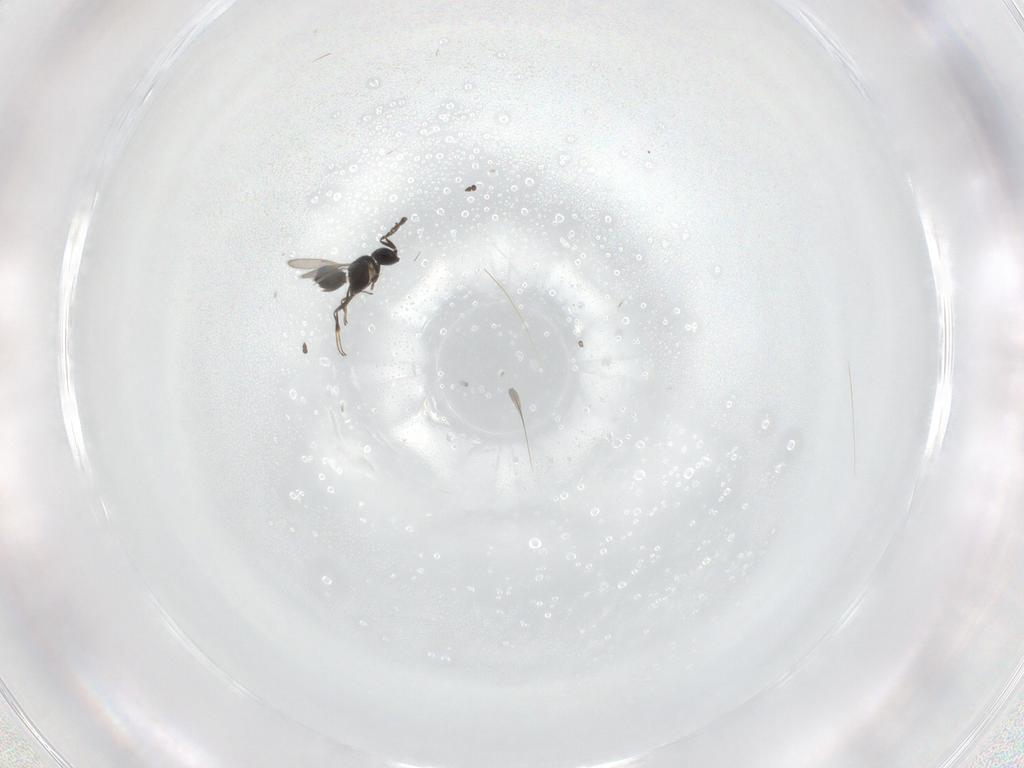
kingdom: Animalia
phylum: Arthropoda
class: Insecta
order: Hymenoptera
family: Scelionidae
